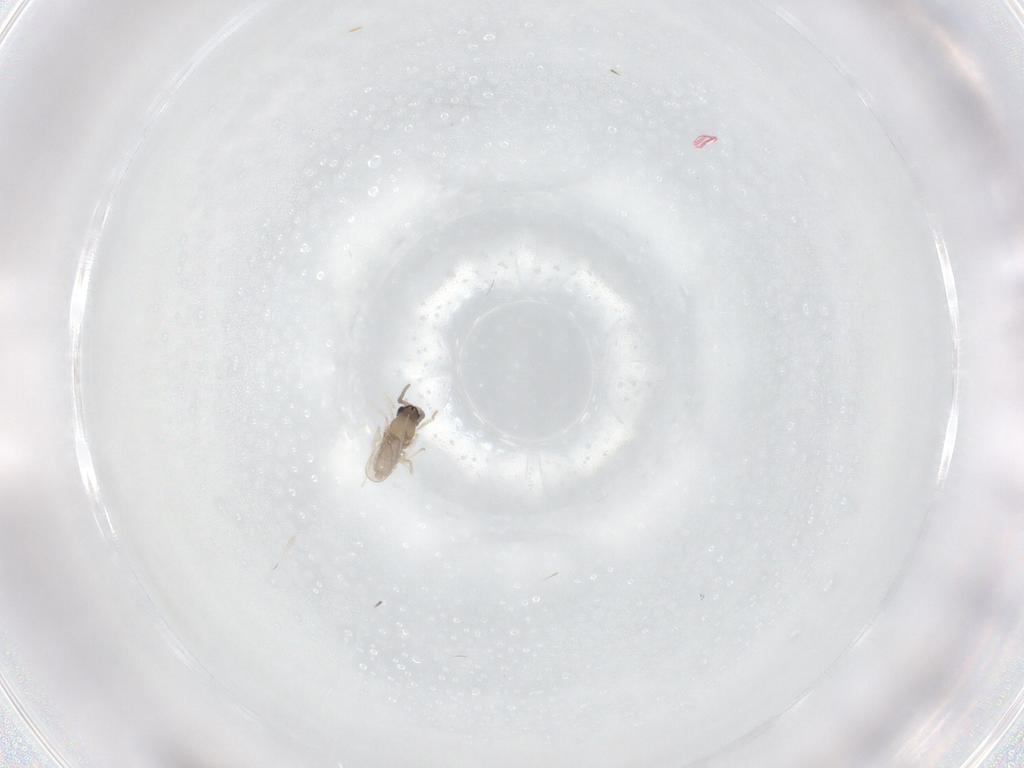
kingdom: Animalia
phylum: Arthropoda
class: Insecta
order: Diptera
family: Cecidomyiidae
